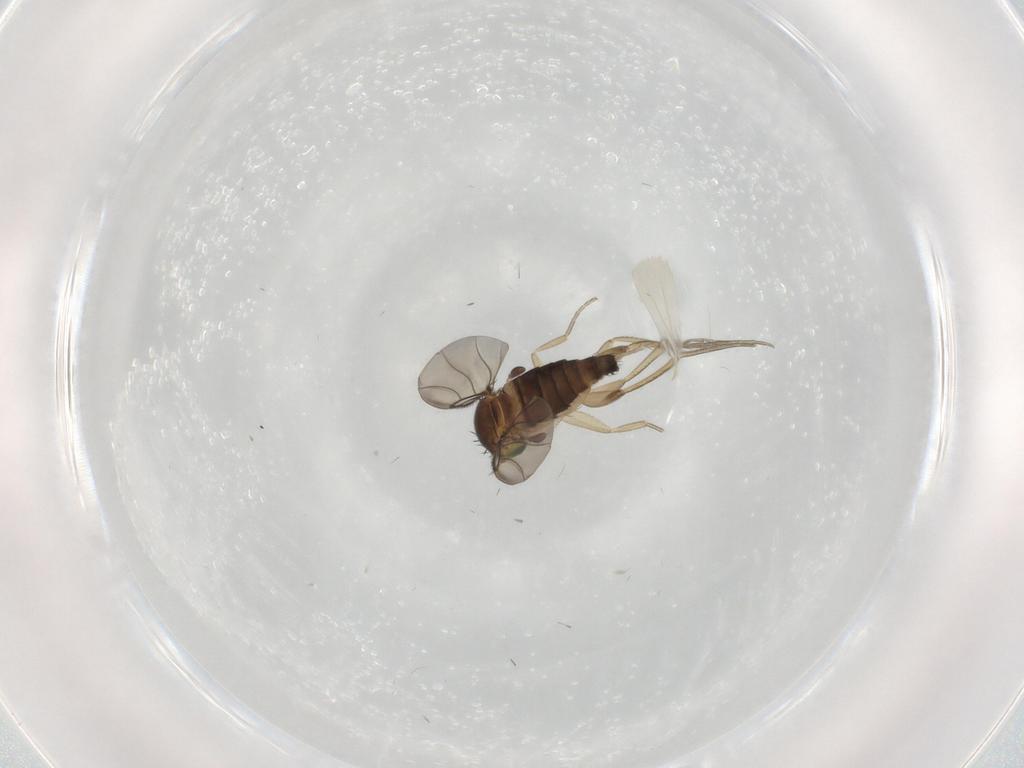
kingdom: Animalia
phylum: Arthropoda
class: Insecta
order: Diptera
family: Phoridae
